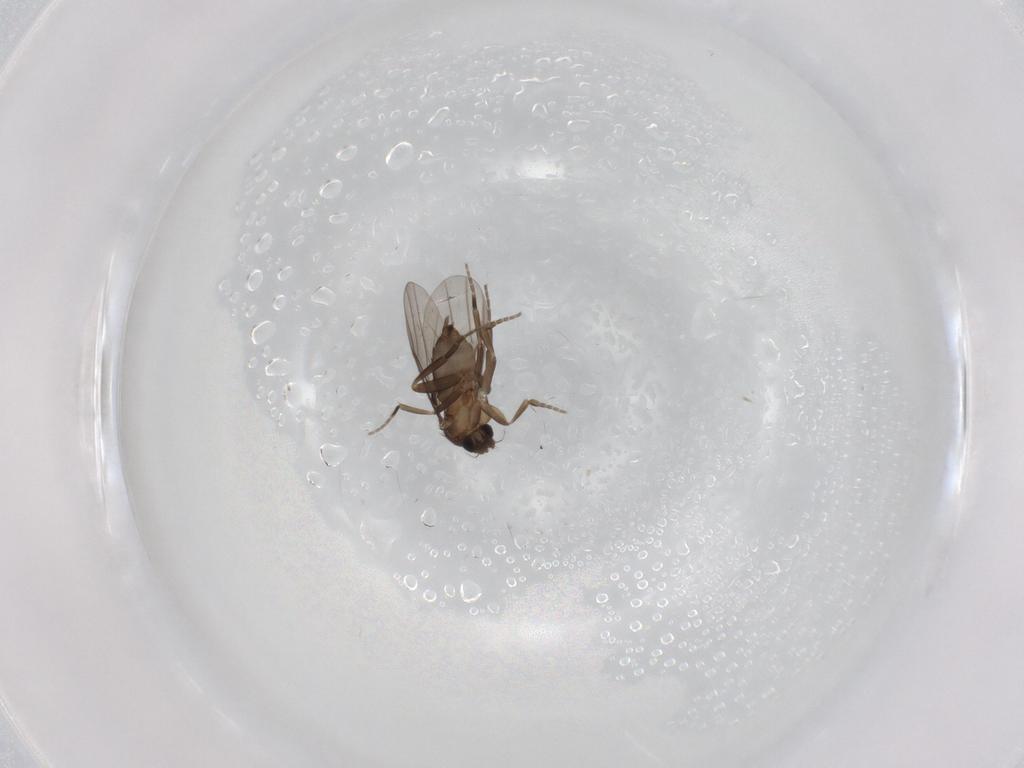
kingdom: Animalia
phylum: Arthropoda
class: Insecta
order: Diptera
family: Phoridae
